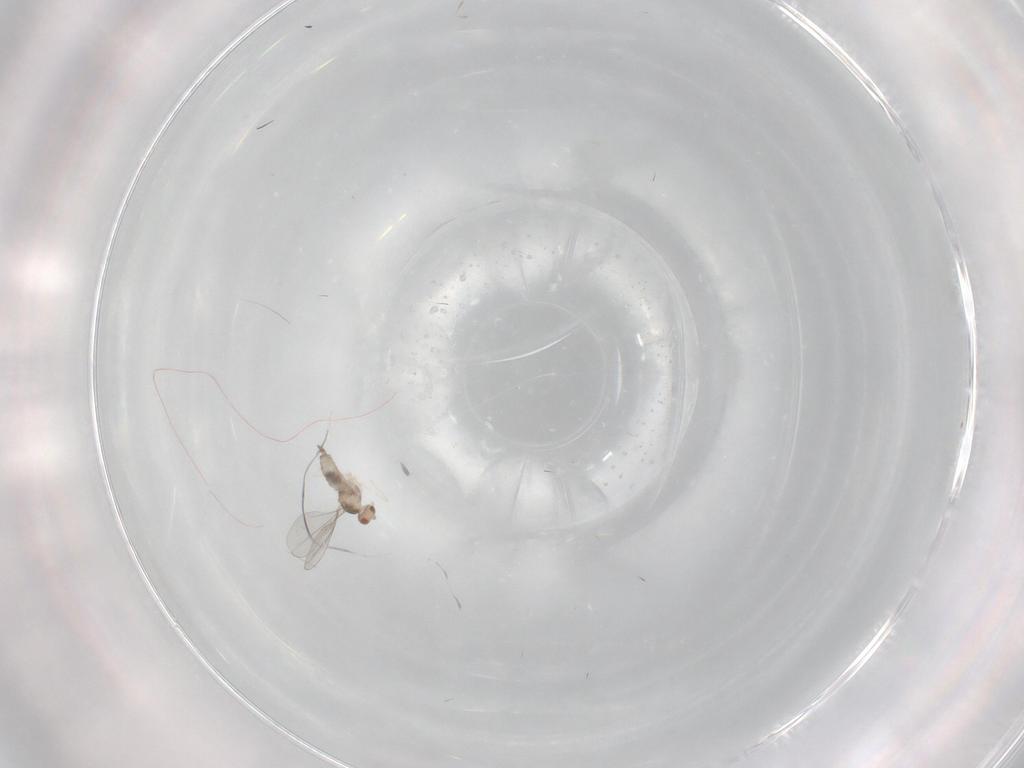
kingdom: Animalia
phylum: Arthropoda
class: Insecta
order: Diptera
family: Cecidomyiidae
